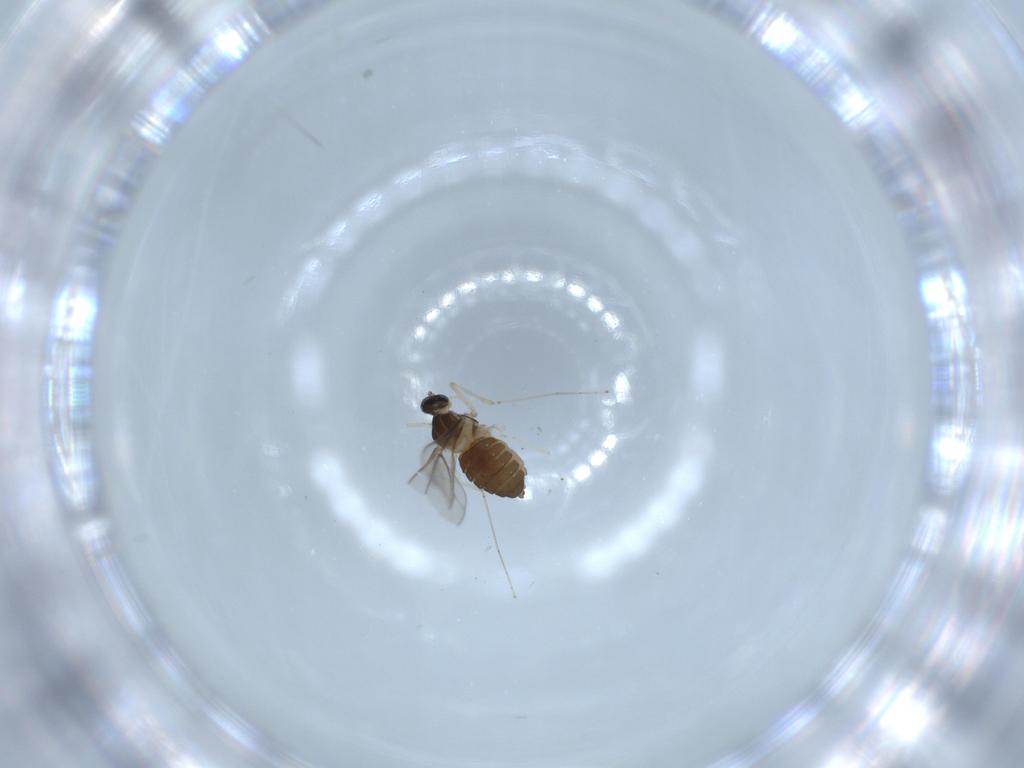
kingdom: Animalia
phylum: Arthropoda
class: Insecta
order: Diptera
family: Cecidomyiidae
